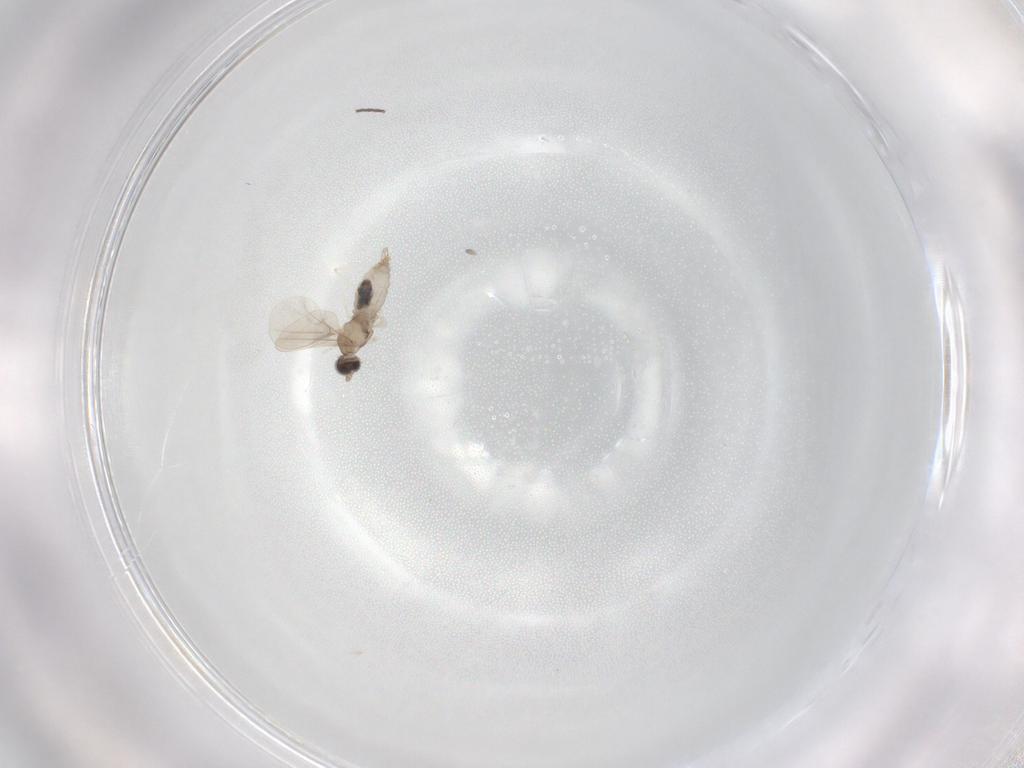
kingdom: Animalia
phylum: Arthropoda
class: Insecta
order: Diptera
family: Cecidomyiidae
